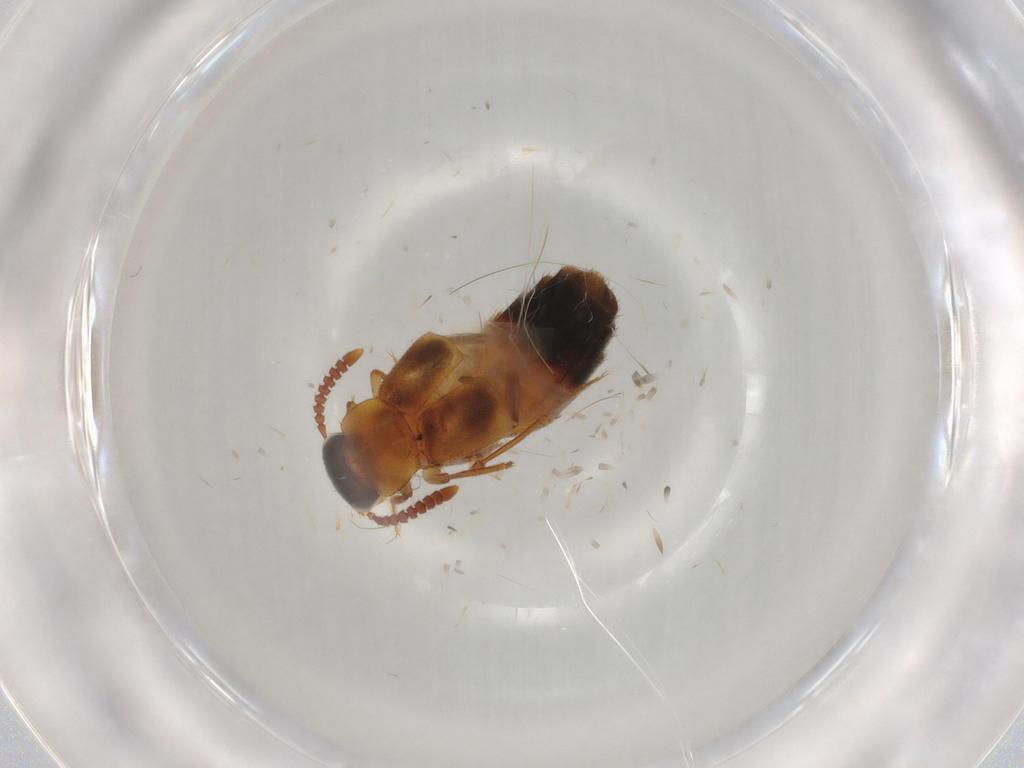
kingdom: Animalia
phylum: Arthropoda
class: Insecta
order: Coleoptera
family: Staphylinidae
